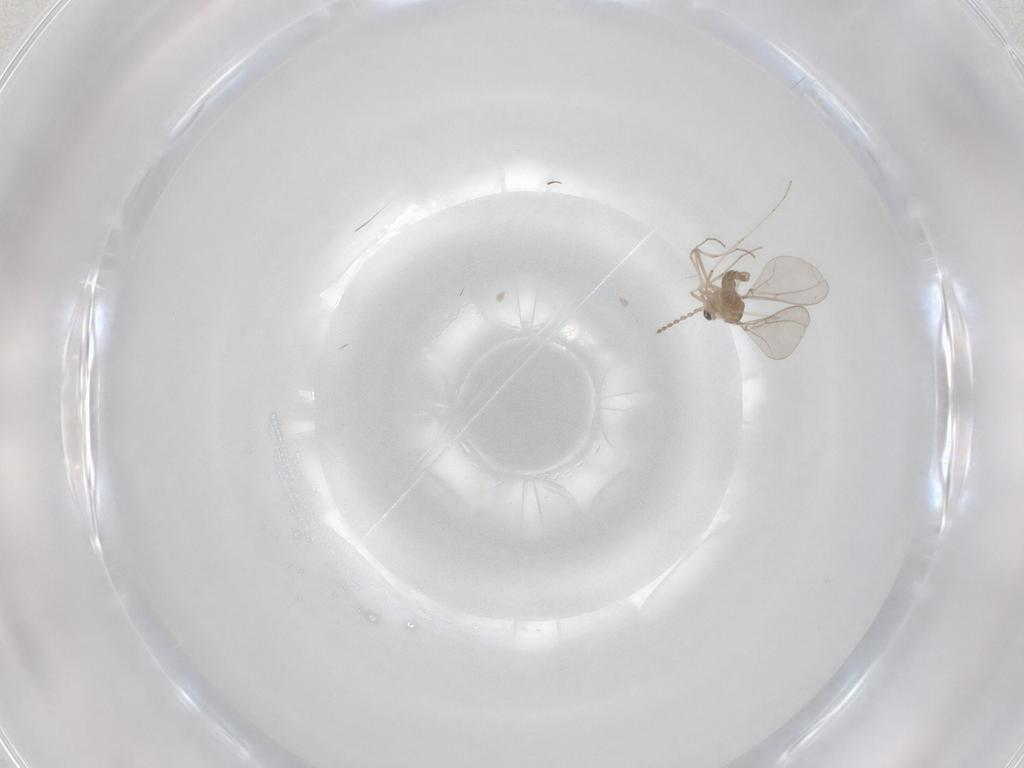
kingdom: Animalia
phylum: Arthropoda
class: Insecta
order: Diptera
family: Cecidomyiidae
